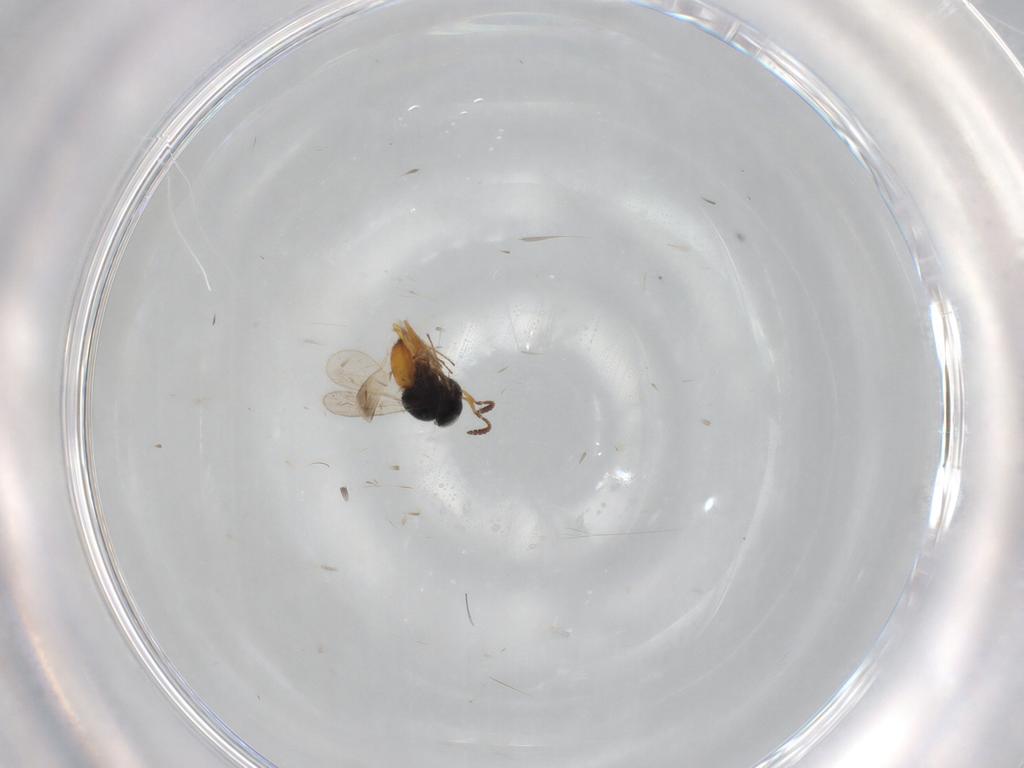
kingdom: Animalia
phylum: Arthropoda
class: Insecta
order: Hymenoptera
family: Scelionidae
